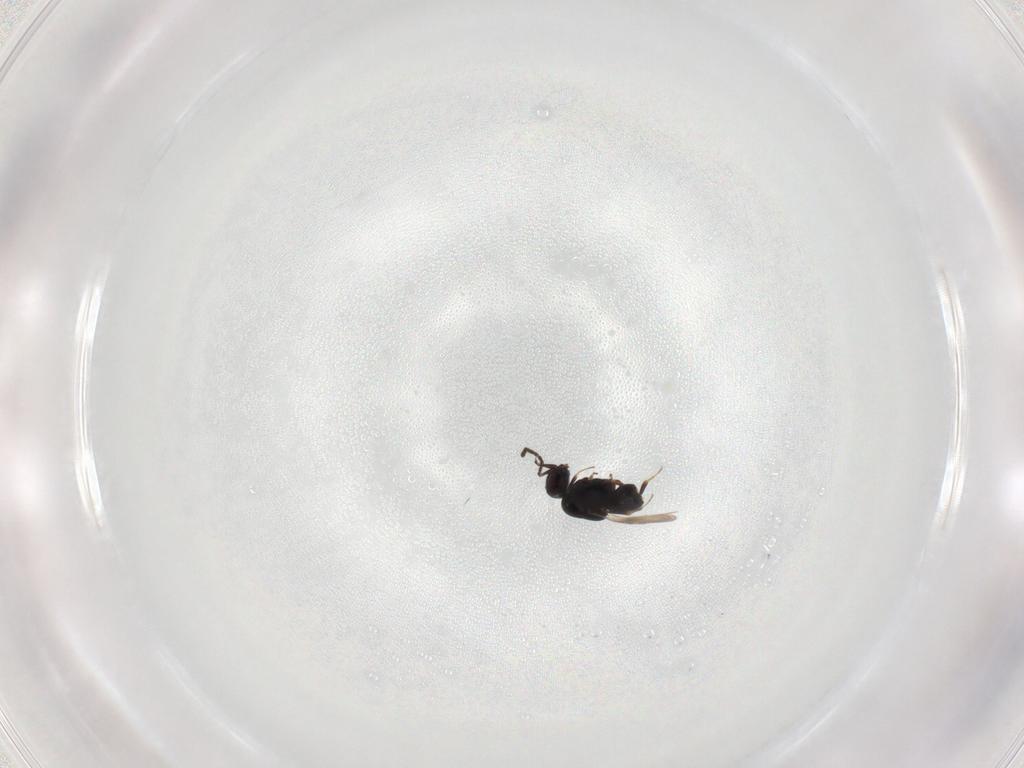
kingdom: Animalia
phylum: Arthropoda
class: Insecta
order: Hymenoptera
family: Ceraphronidae
